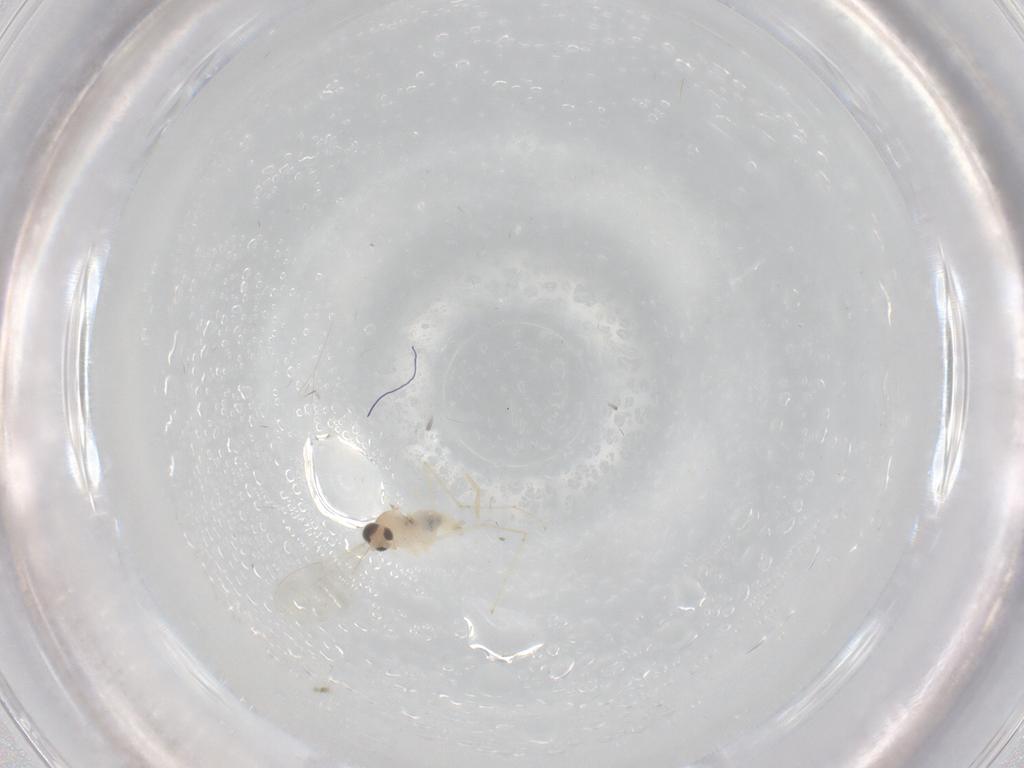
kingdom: Animalia
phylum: Arthropoda
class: Insecta
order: Diptera
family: Cecidomyiidae
